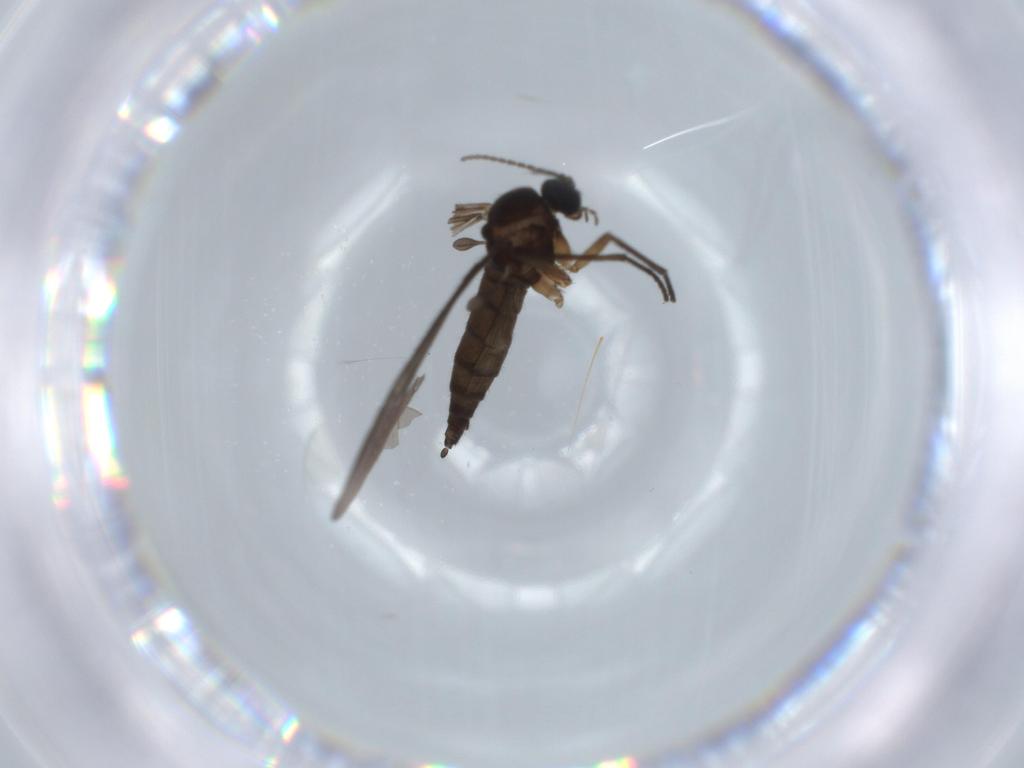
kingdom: Animalia
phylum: Arthropoda
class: Insecta
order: Diptera
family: Sciaridae
